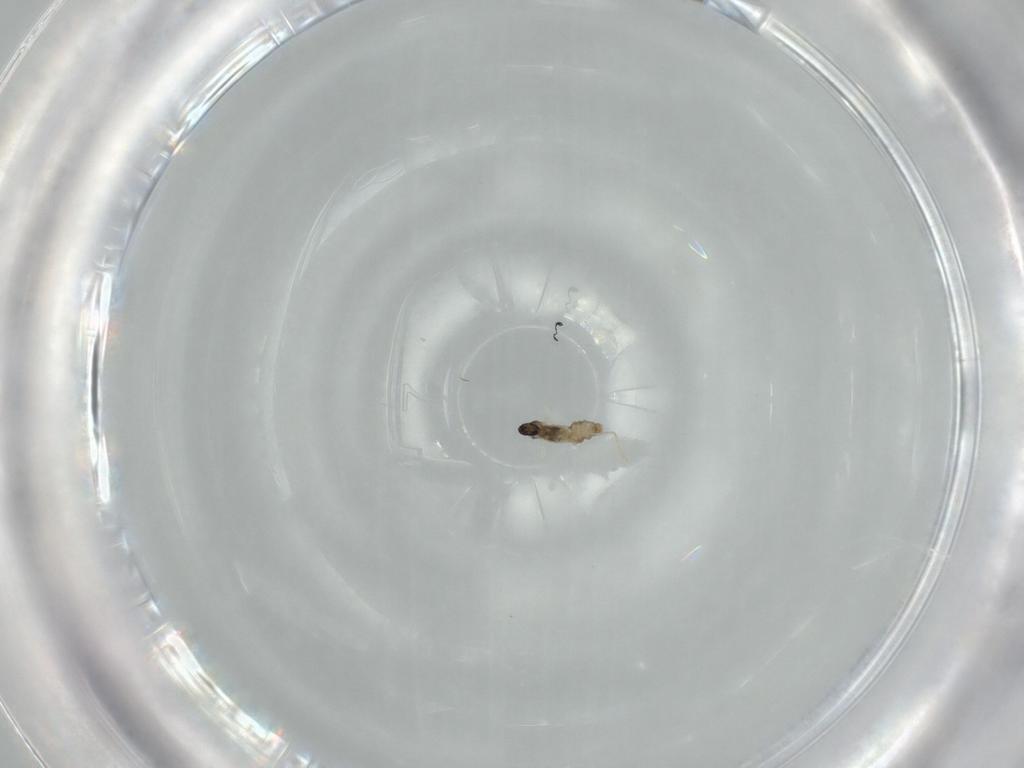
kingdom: Animalia
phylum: Arthropoda
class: Insecta
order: Diptera
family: Cecidomyiidae
